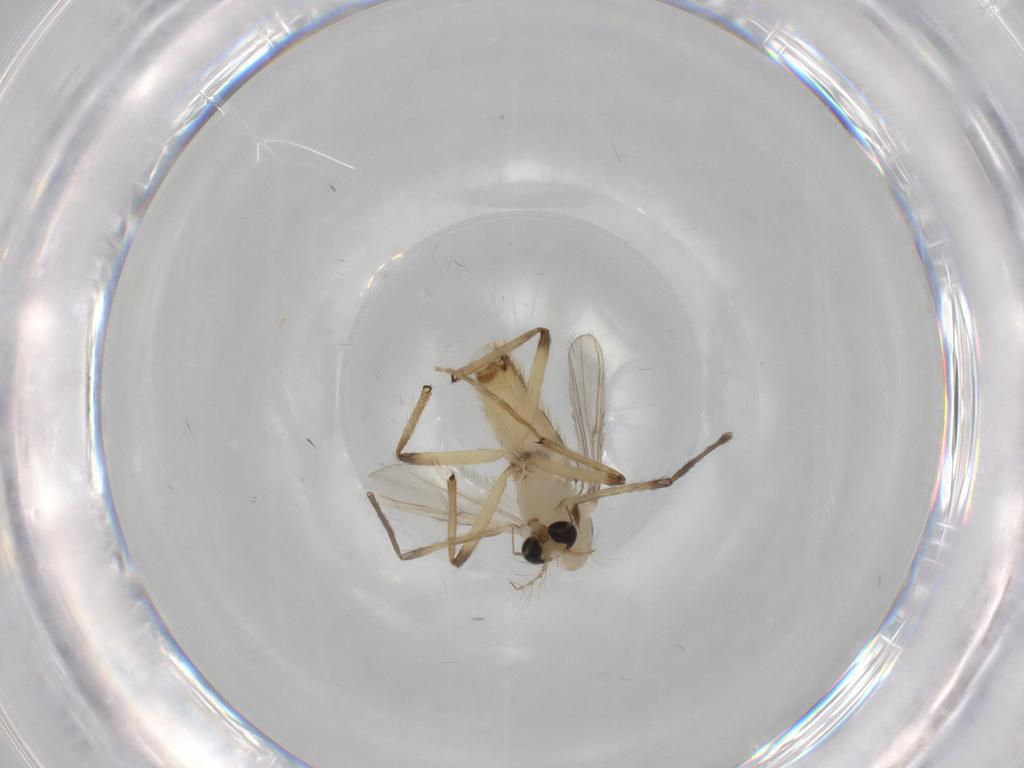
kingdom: Animalia
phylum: Arthropoda
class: Insecta
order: Diptera
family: Chironomidae
